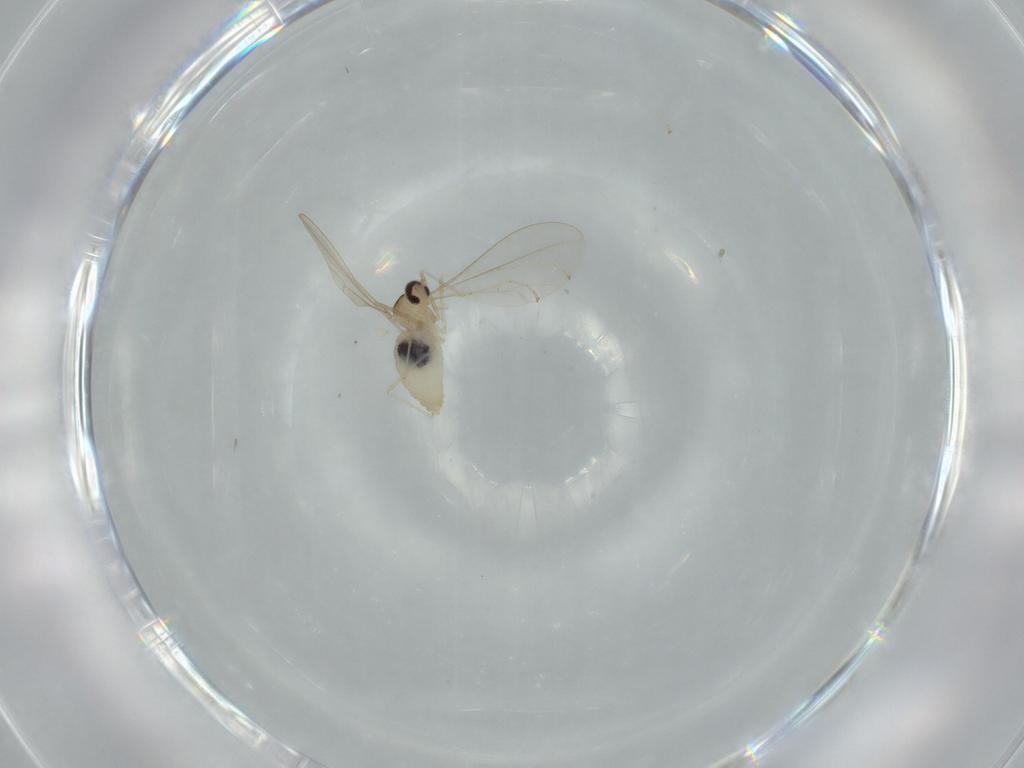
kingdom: Animalia
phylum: Arthropoda
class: Insecta
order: Diptera
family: Cecidomyiidae
